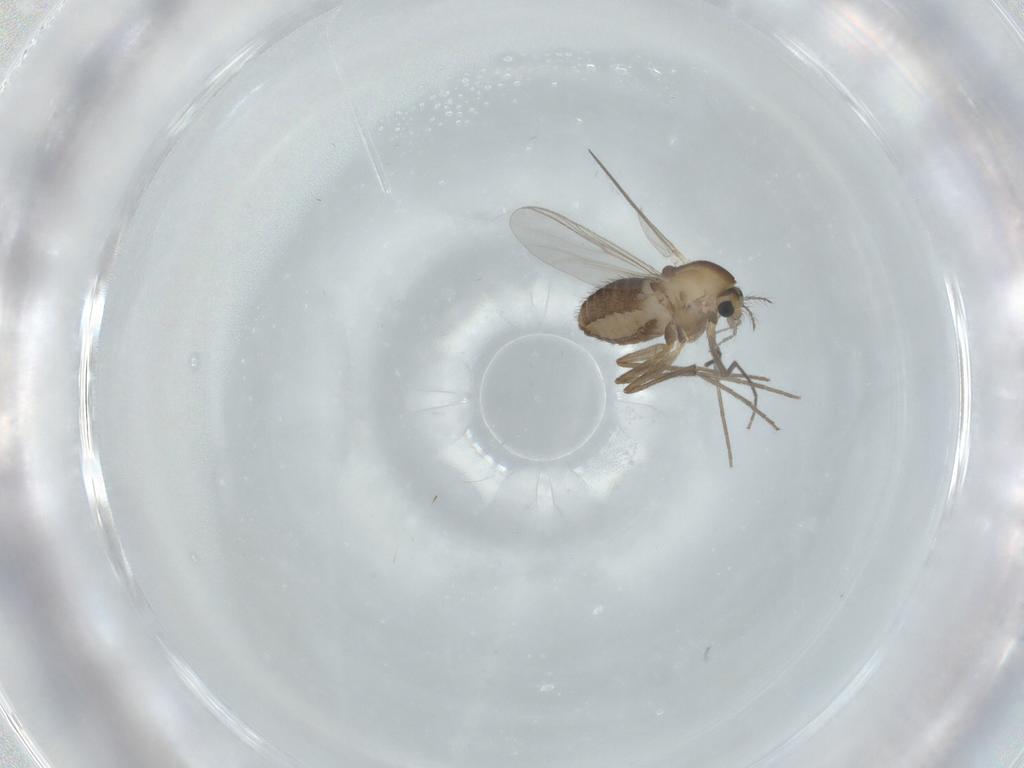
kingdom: Animalia
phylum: Arthropoda
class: Insecta
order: Diptera
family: Chironomidae
